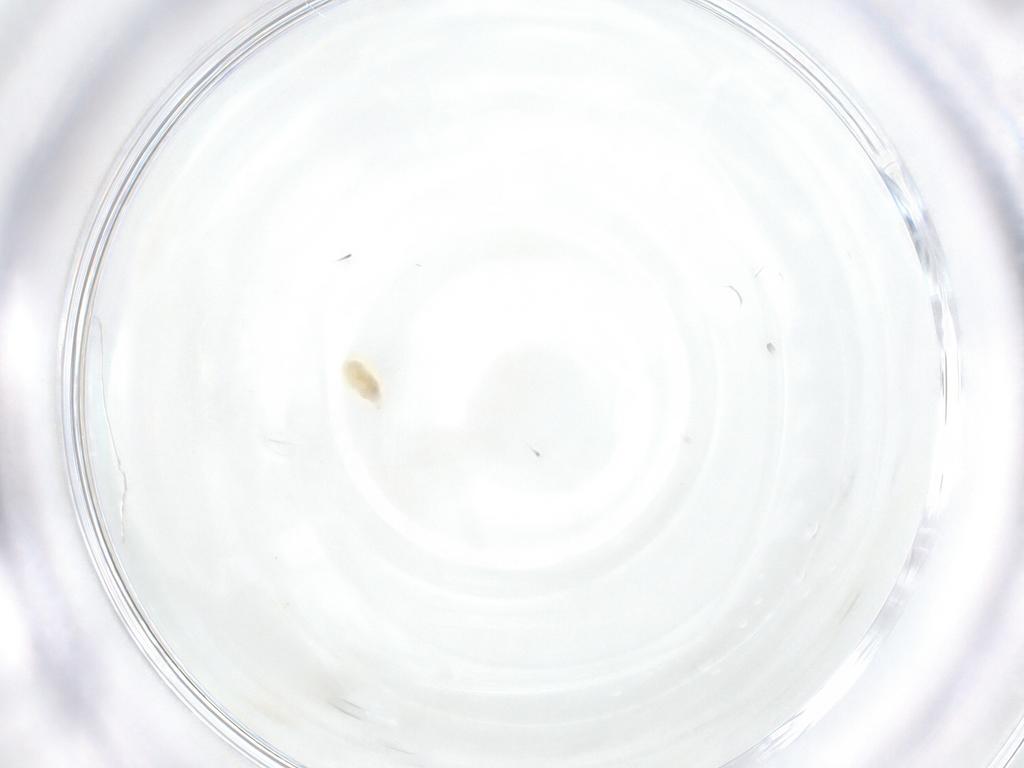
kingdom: Animalia
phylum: Arthropoda
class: Arachnida
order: Trombidiformes
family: Eupodidae
